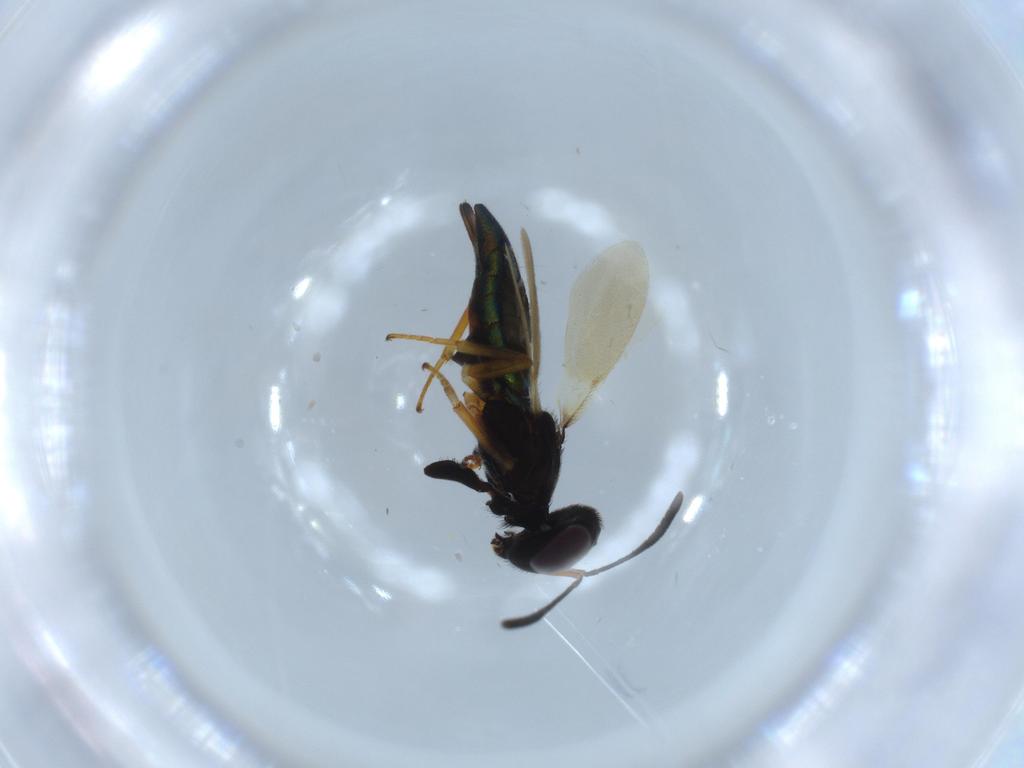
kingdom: Animalia
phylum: Arthropoda
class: Insecta
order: Hymenoptera
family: Eupelmidae
